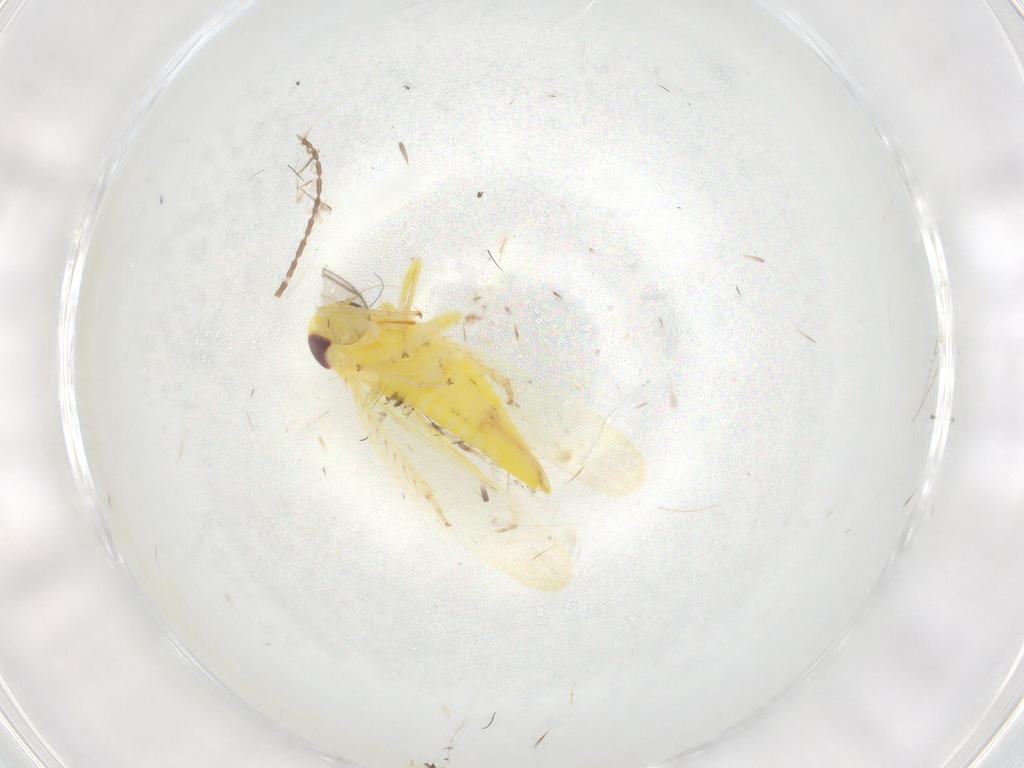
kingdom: Animalia
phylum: Arthropoda
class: Insecta
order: Hemiptera
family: Cicadellidae
